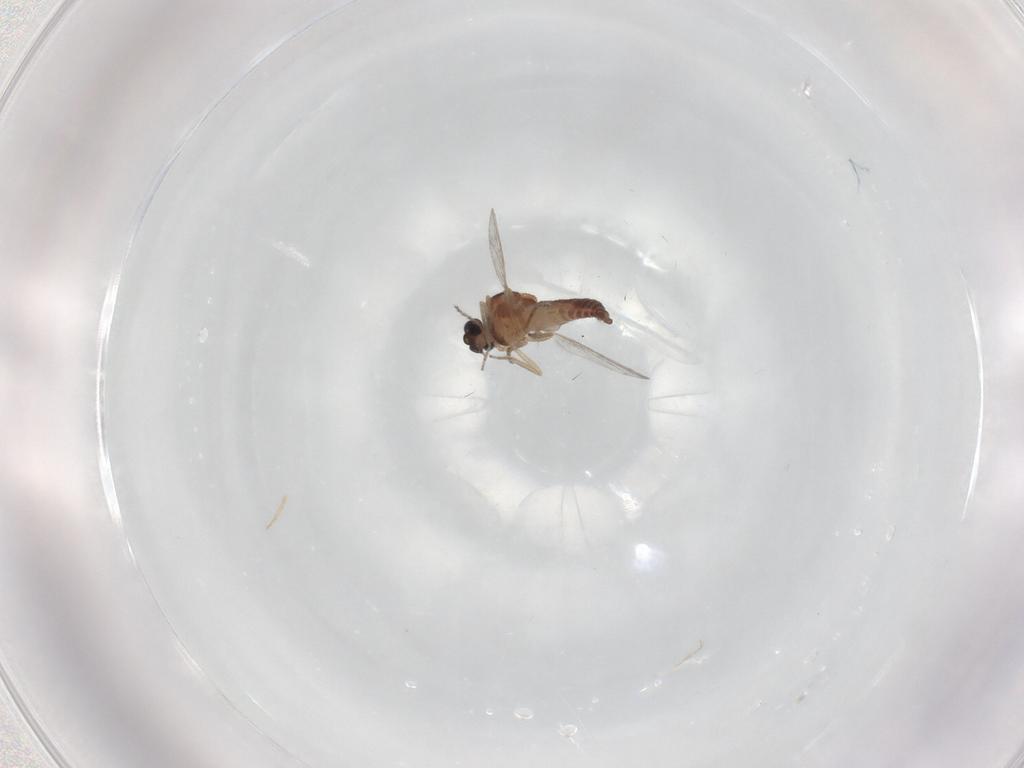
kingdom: Animalia
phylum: Arthropoda
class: Insecta
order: Diptera
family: Ceratopogonidae
